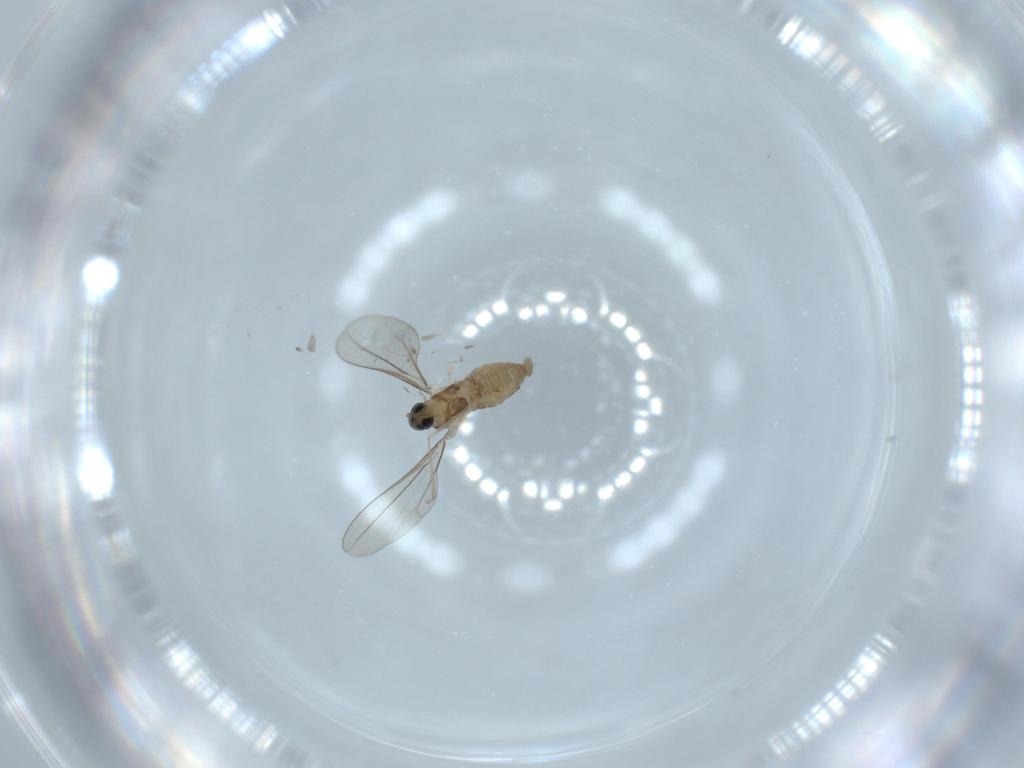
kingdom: Animalia
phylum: Arthropoda
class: Insecta
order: Diptera
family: Cecidomyiidae
